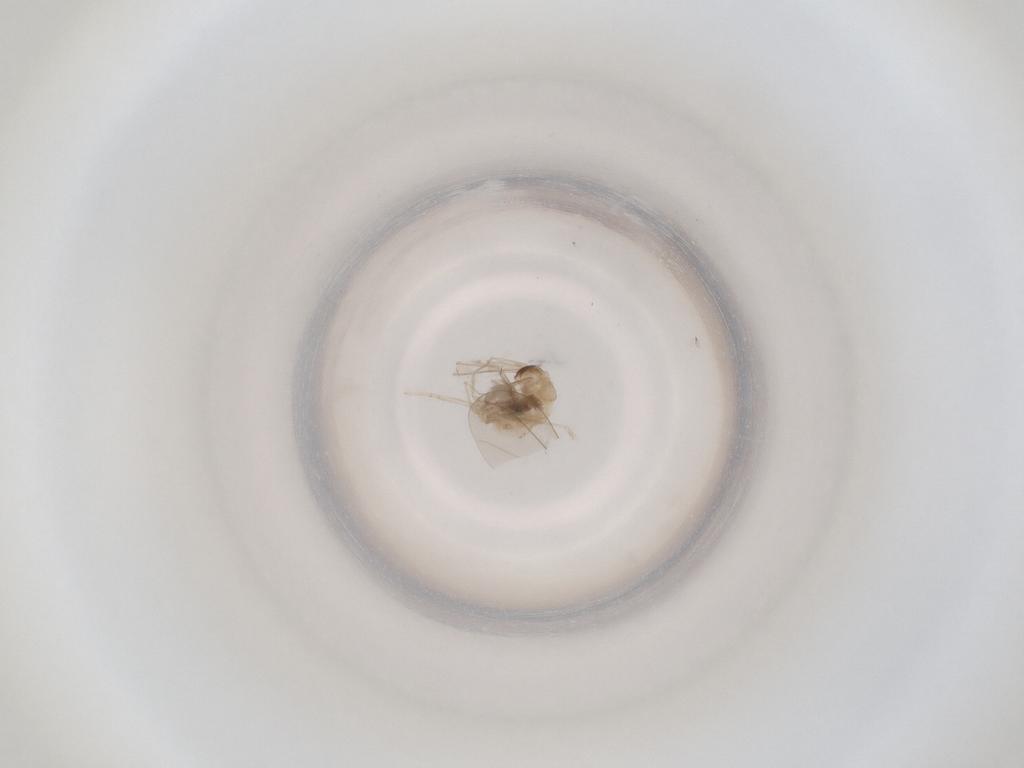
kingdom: Animalia
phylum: Arthropoda
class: Insecta
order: Diptera
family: Cecidomyiidae
